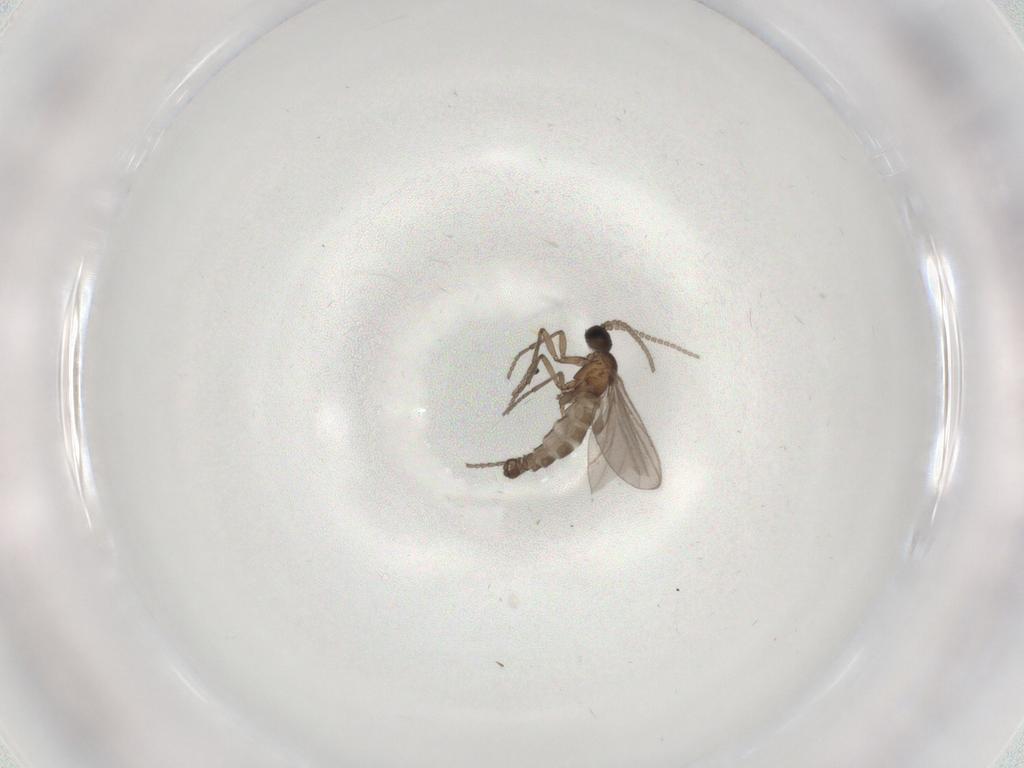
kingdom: Animalia
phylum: Arthropoda
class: Insecta
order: Diptera
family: Sciaridae
